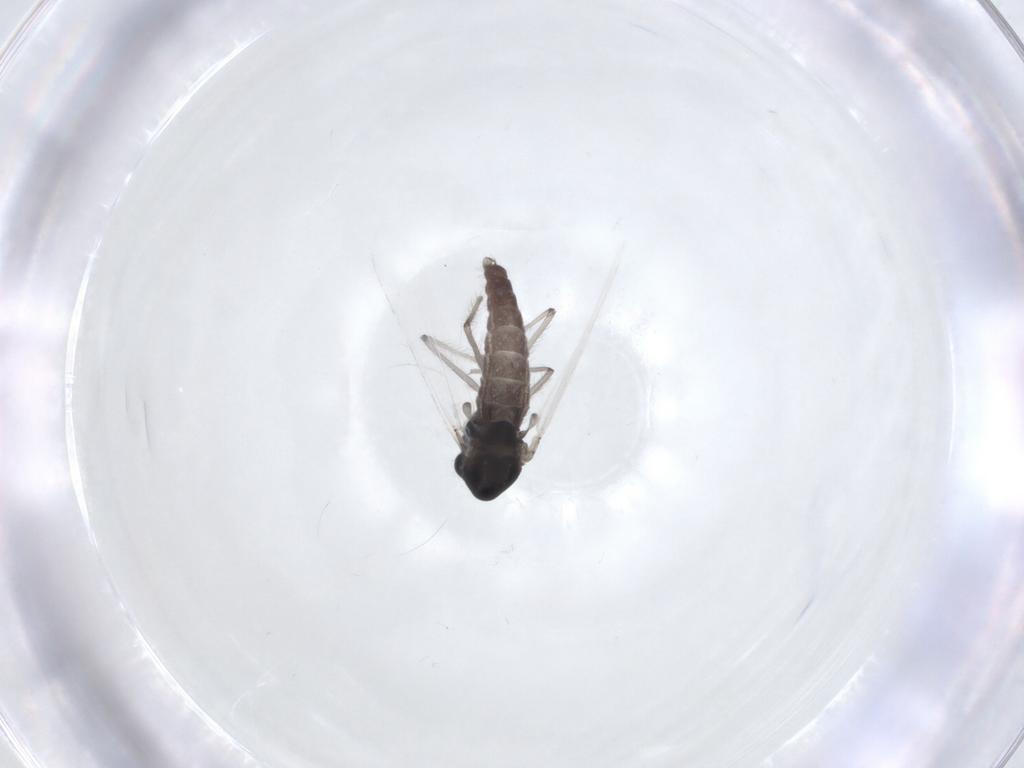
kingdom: Animalia
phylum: Arthropoda
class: Insecta
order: Diptera
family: Chironomidae
